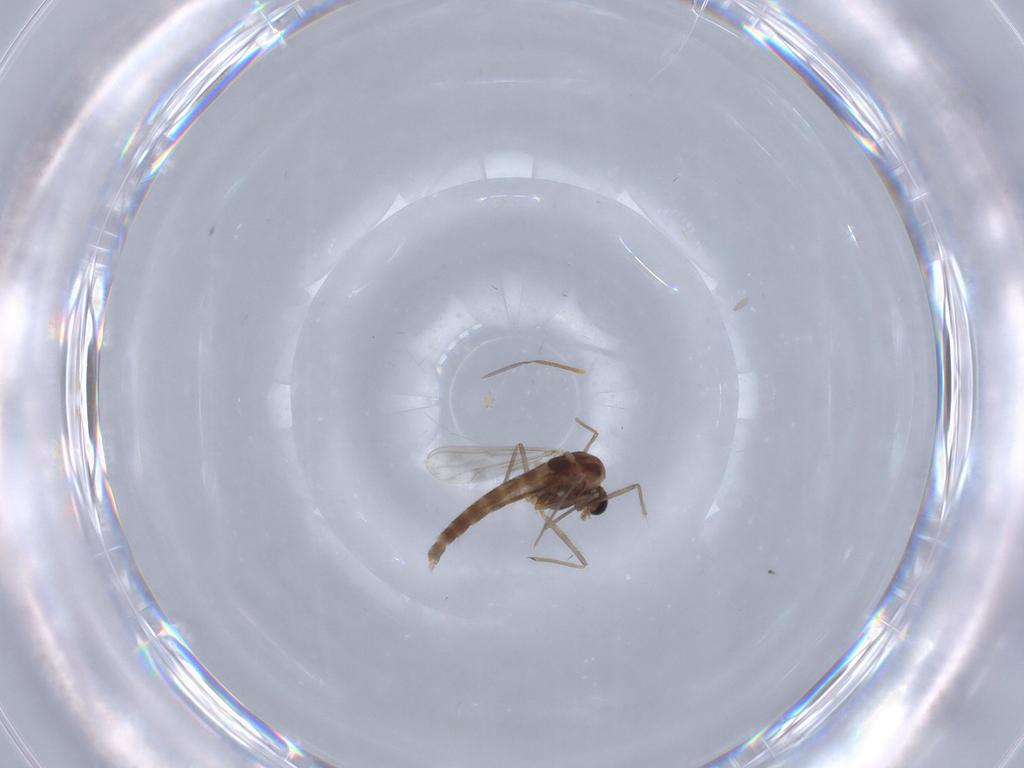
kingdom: Animalia
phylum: Arthropoda
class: Insecta
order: Diptera
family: Chironomidae
